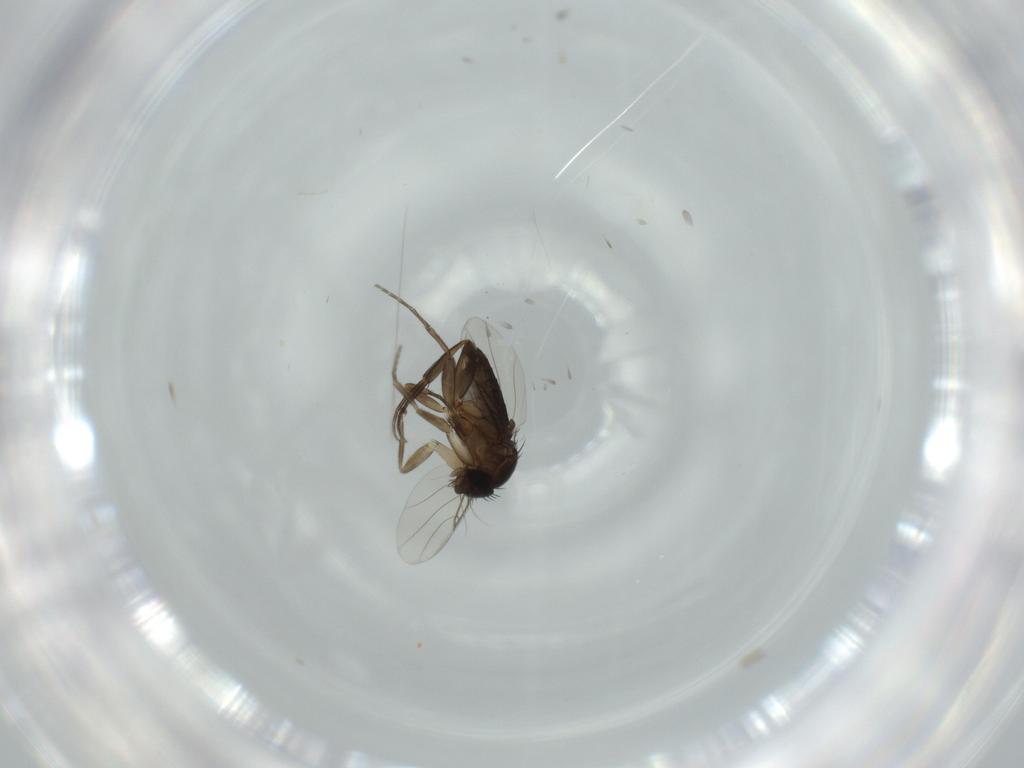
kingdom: Animalia
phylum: Arthropoda
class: Insecta
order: Diptera
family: Phoridae
